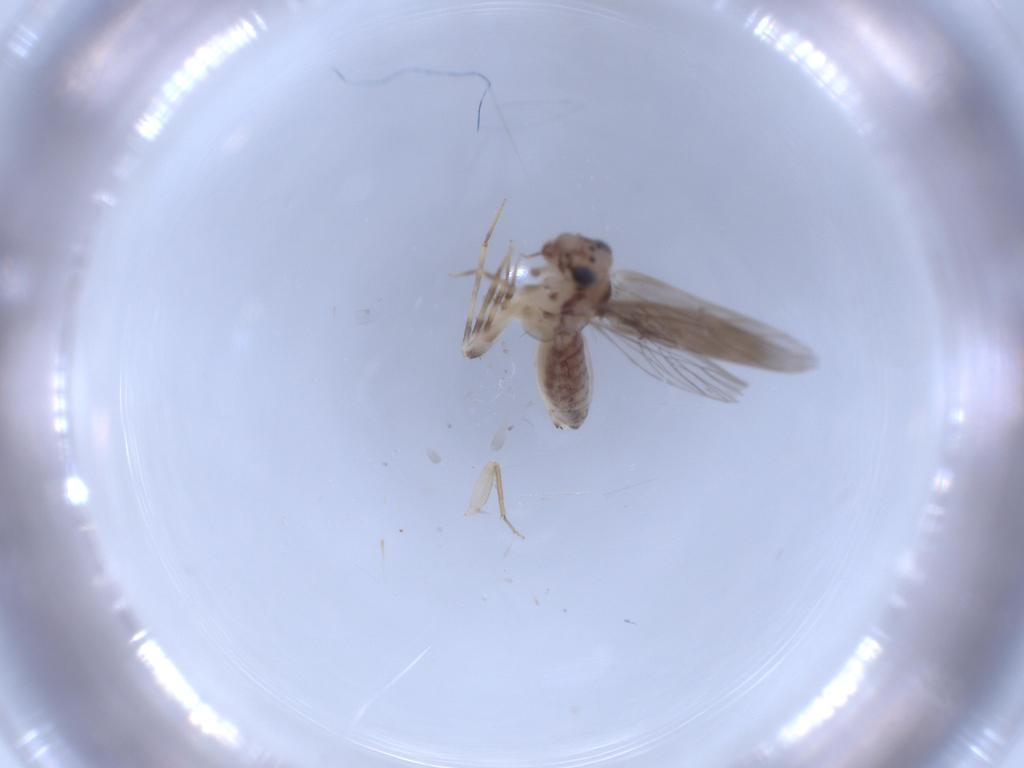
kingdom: Animalia
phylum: Arthropoda
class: Insecta
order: Psocodea
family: Lepidopsocidae
